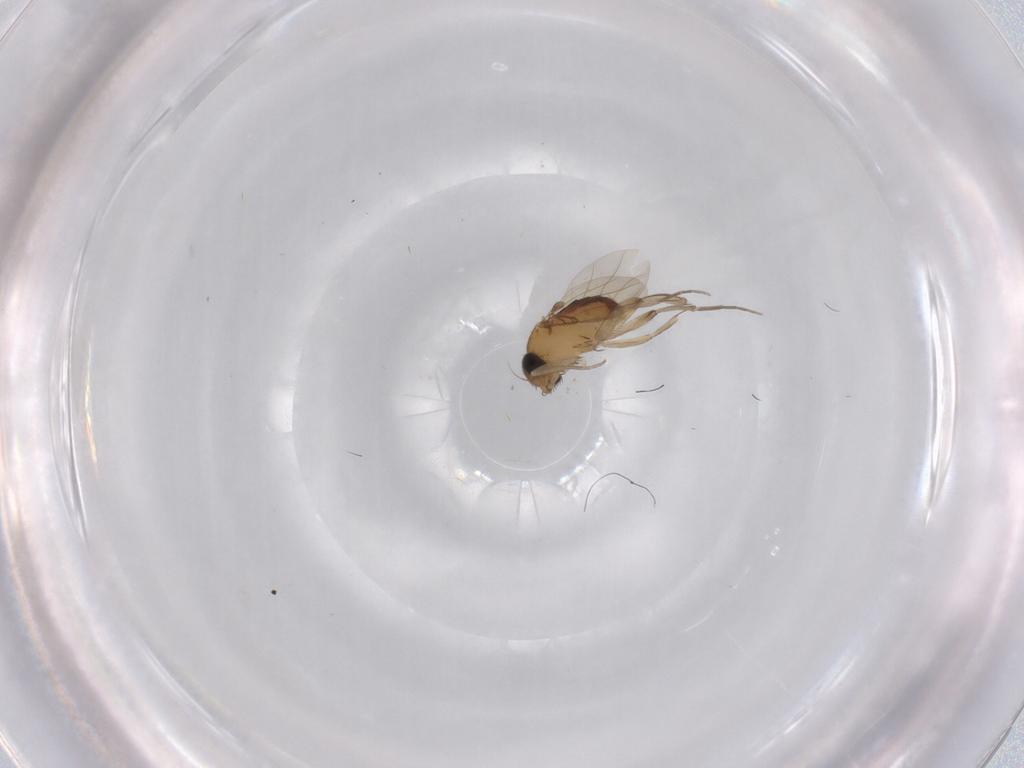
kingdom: Animalia
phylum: Arthropoda
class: Insecta
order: Diptera
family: Phoridae
